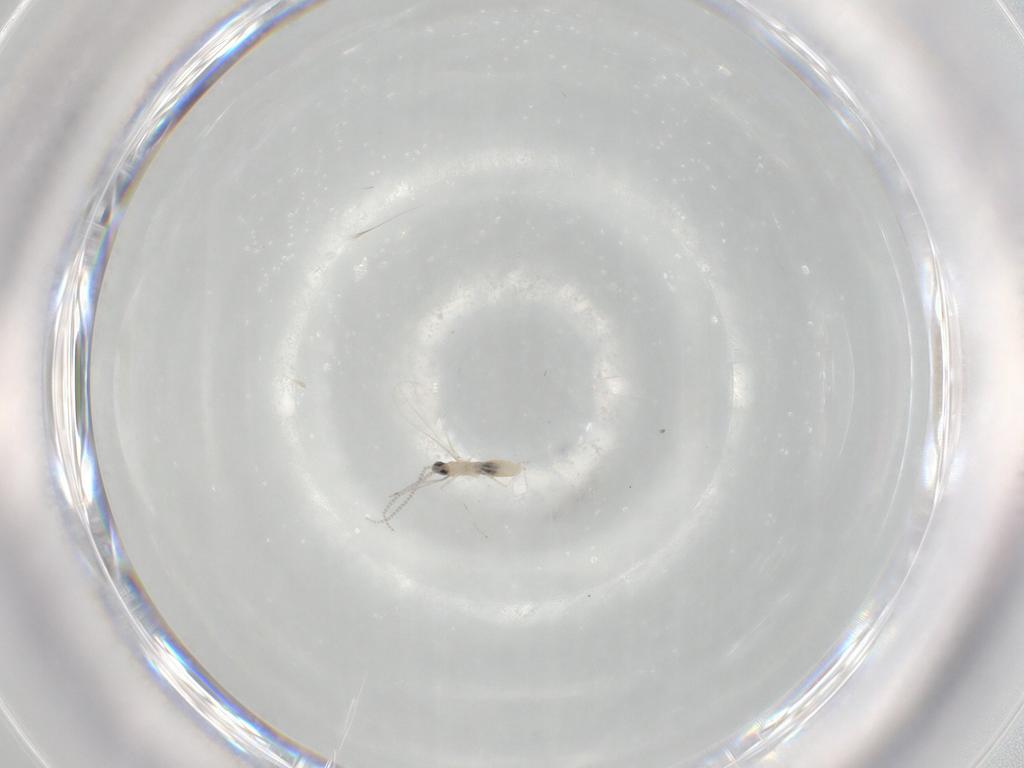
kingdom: Animalia
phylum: Arthropoda
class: Insecta
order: Diptera
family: Cecidomyiidae
